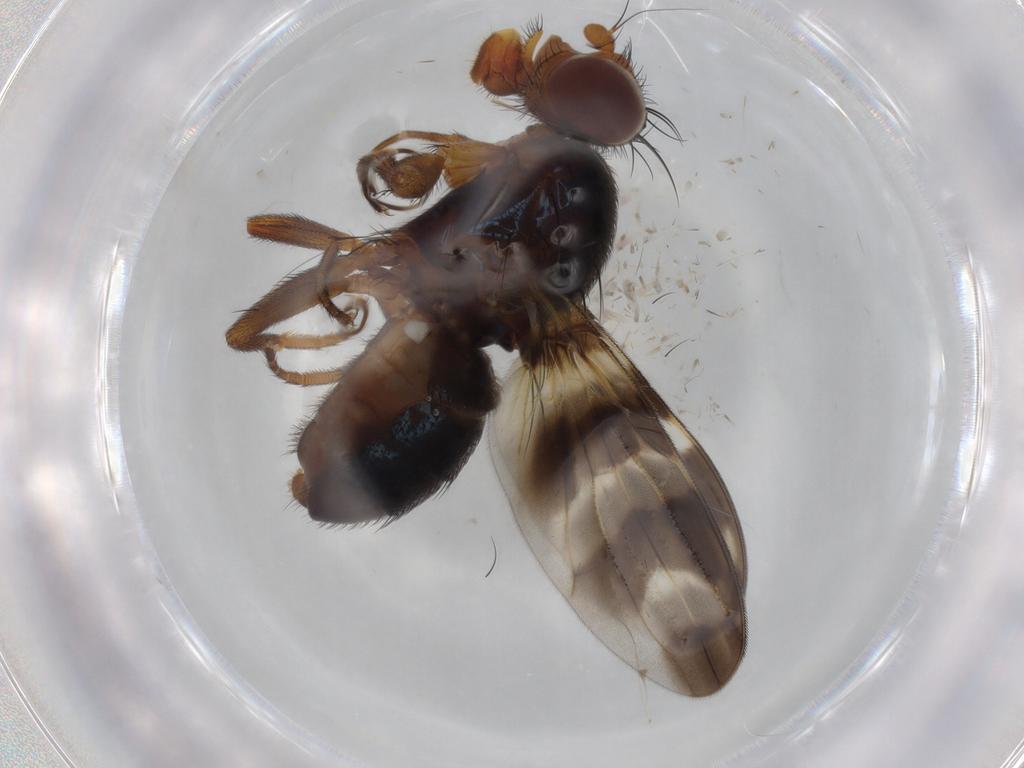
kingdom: Animalia
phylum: Arthropoda
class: Insecta
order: Diptera
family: Ulidiidae
